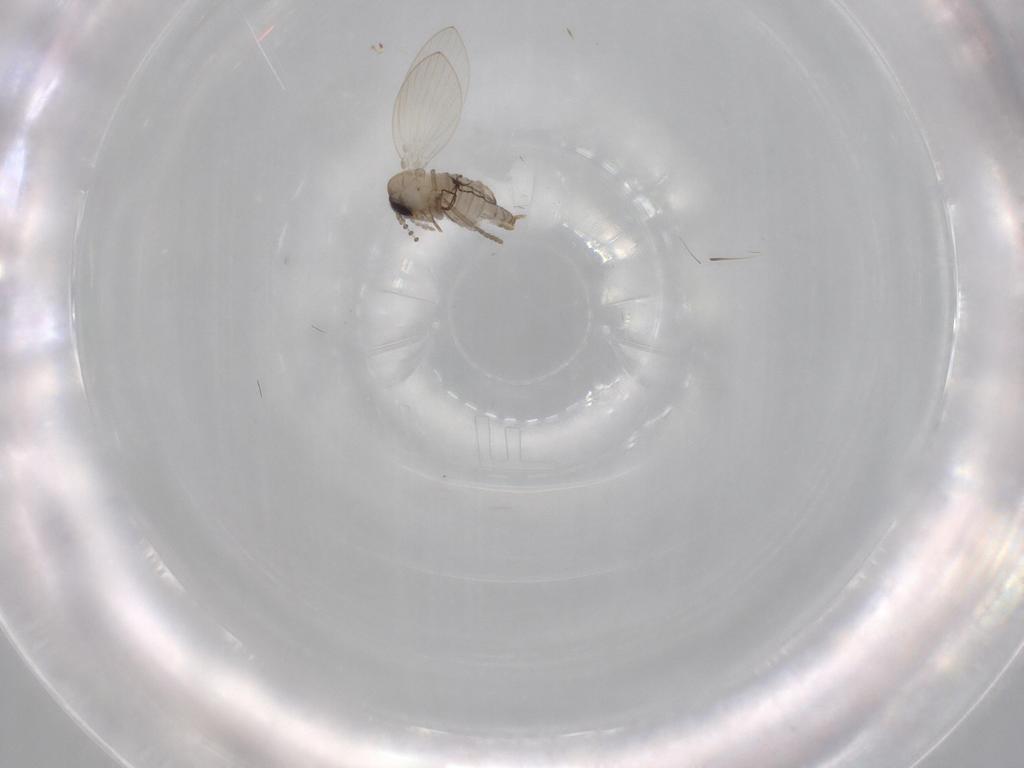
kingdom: Animalia
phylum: Arthropoda
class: Insecta
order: Diptera
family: Psychodidae
